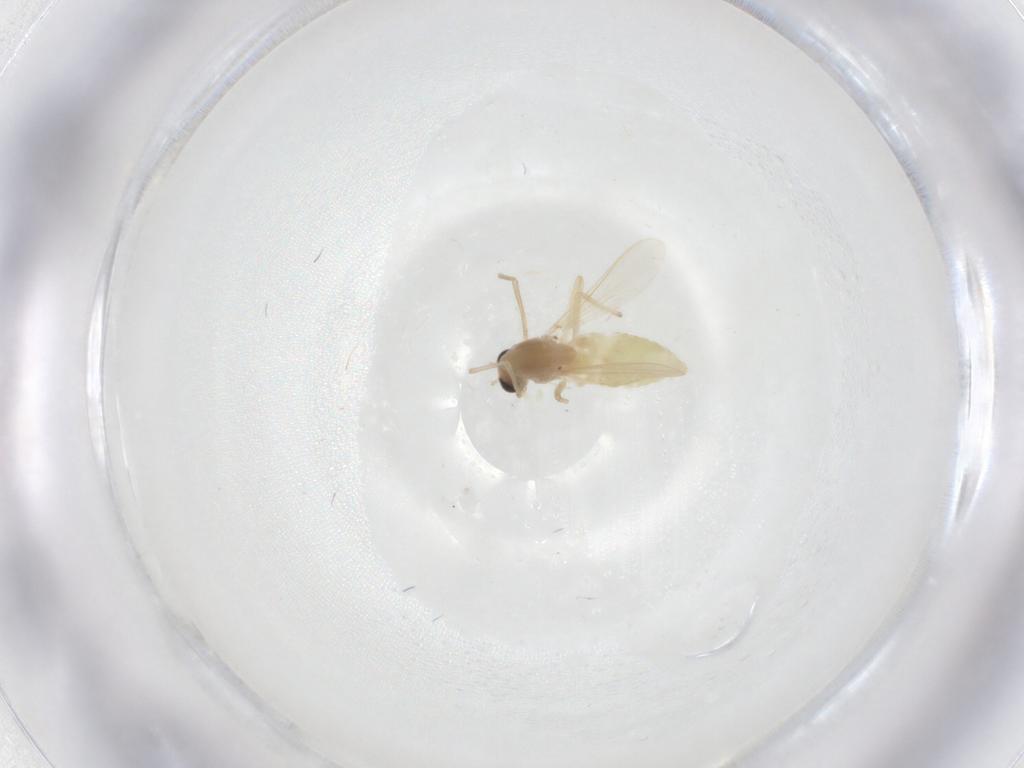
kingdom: Animalia
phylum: Arthropoda
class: Insecta
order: Diptera
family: Chironomidae
